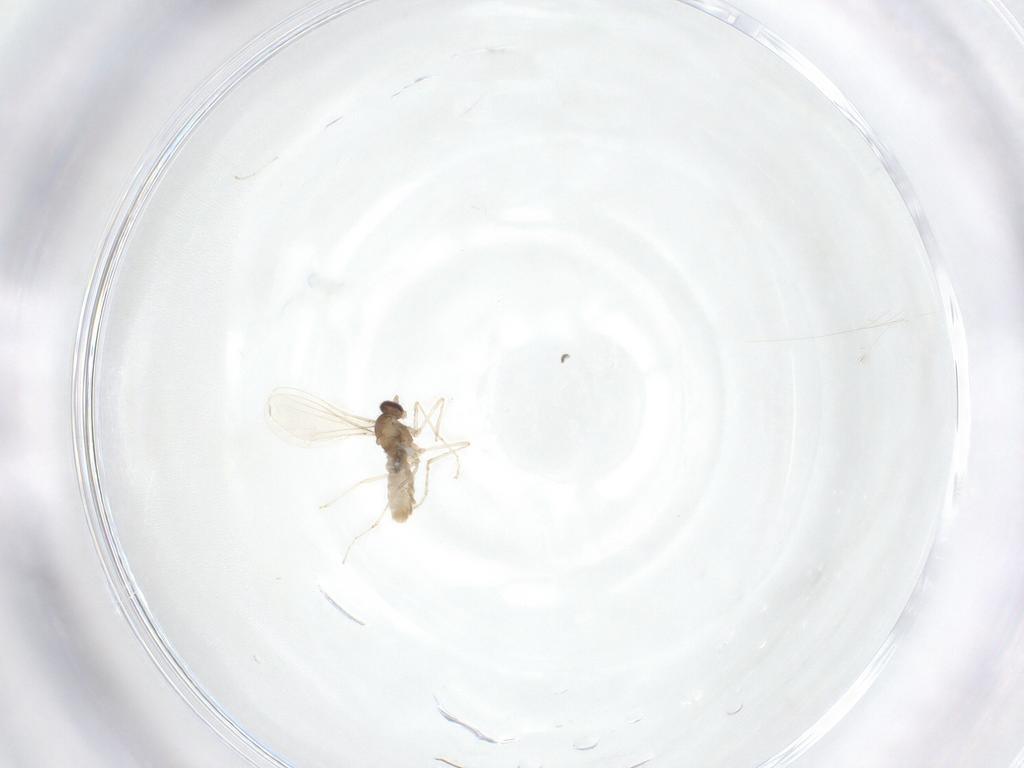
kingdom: Animalia
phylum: Arthropoda
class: Insecta
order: Diptera
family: Cecidomyiidae
